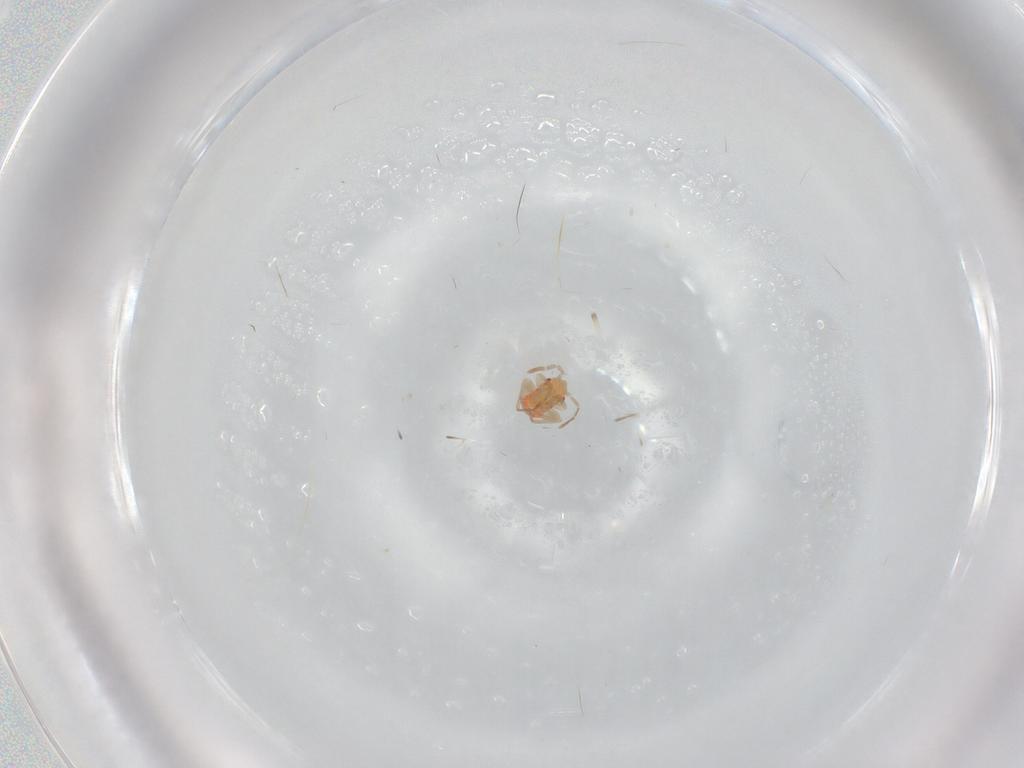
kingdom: Animalia
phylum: Arthropoda
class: Insecta
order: Hemiptera
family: Miridae
